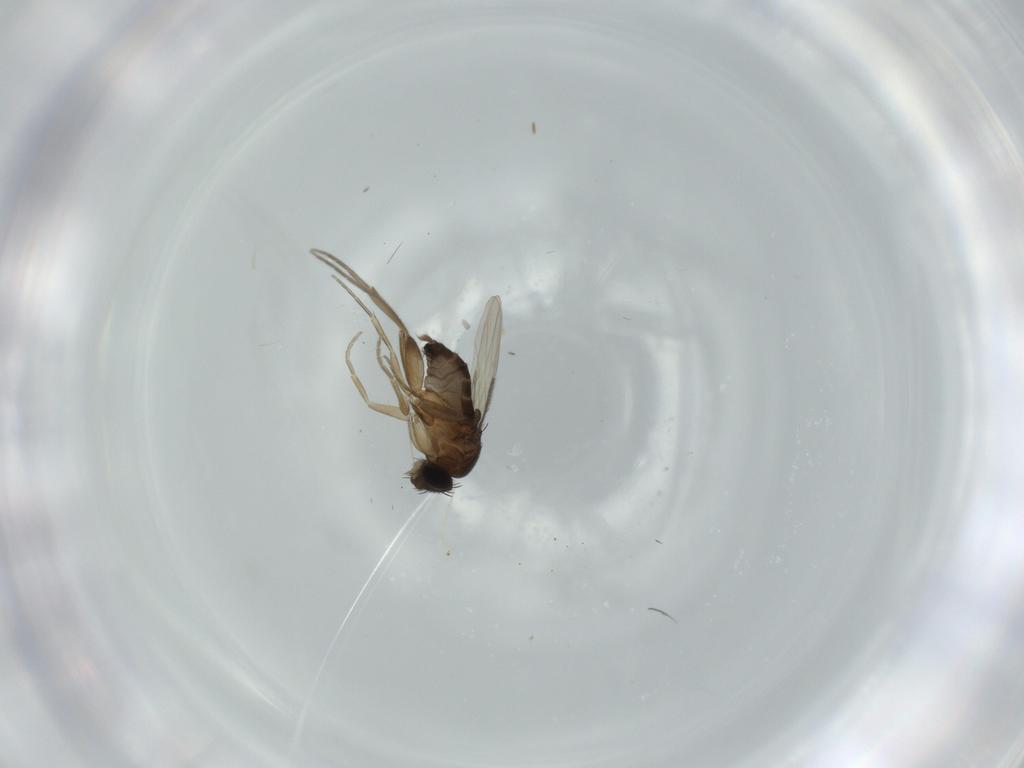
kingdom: Animalia
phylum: Arthropoda
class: Insecta
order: Diptera
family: Phoridae
